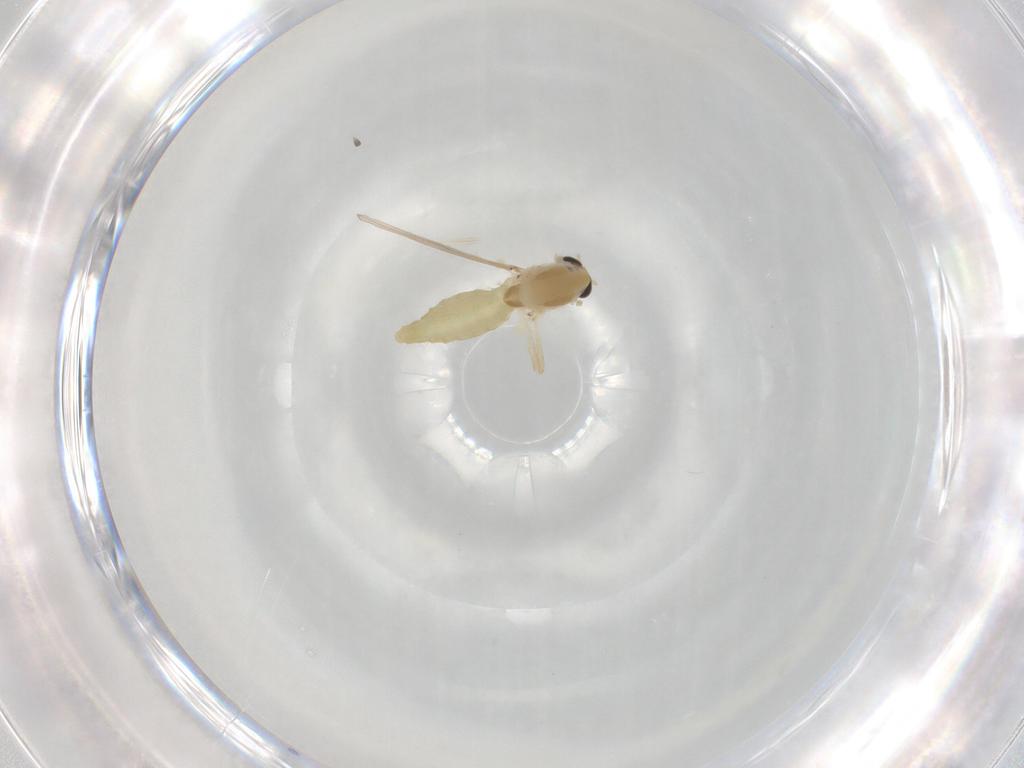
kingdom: Animalia
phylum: Arthropoda
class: Insecta
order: Diptera
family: Chironomidae
